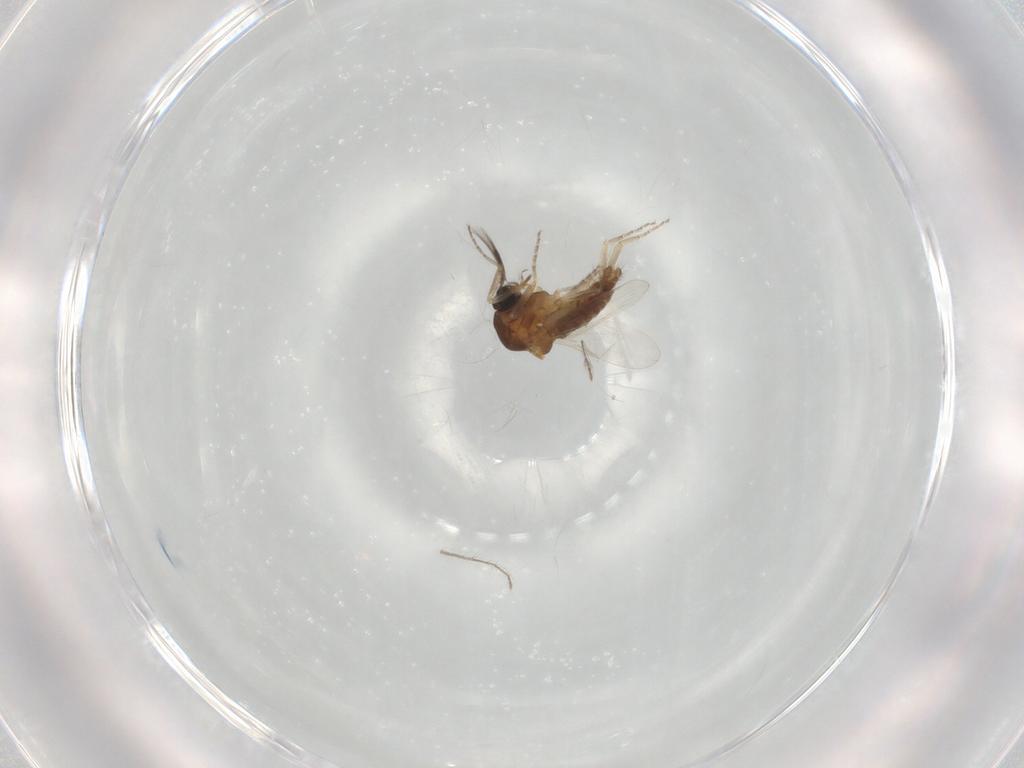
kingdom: Animalia
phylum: Arthropoda
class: Insecta
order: Diptera
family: Ceratopogonidae
